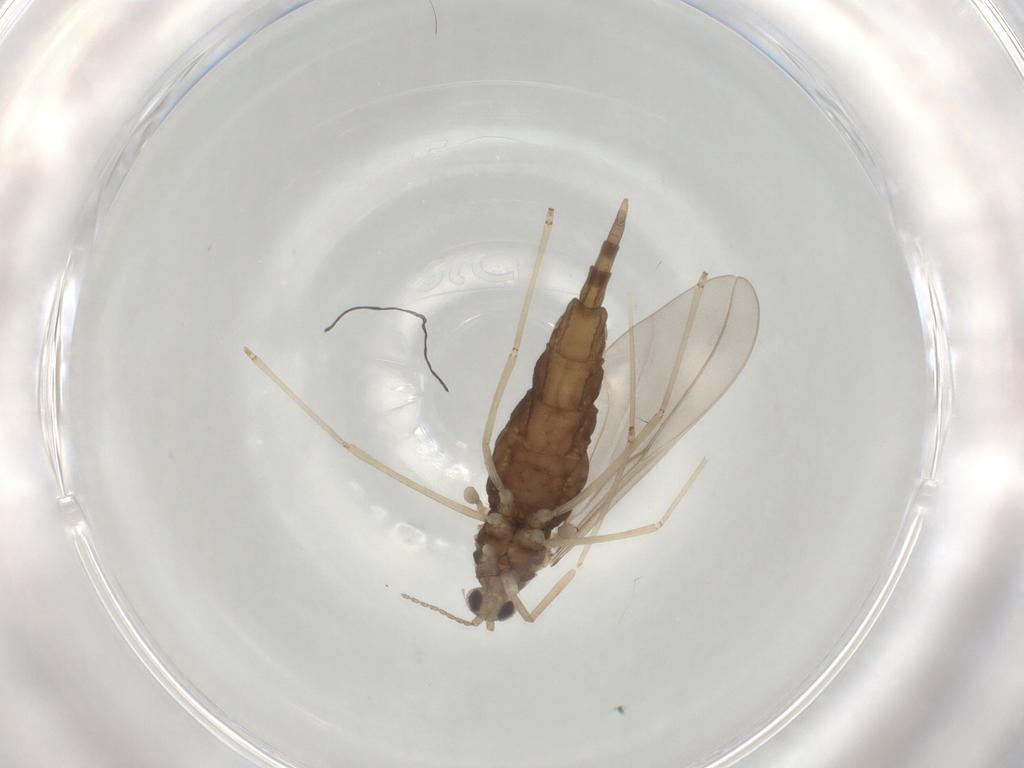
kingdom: Animalia
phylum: Arthropoda
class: Insecta
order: Diptera
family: Cecidomyiidae
